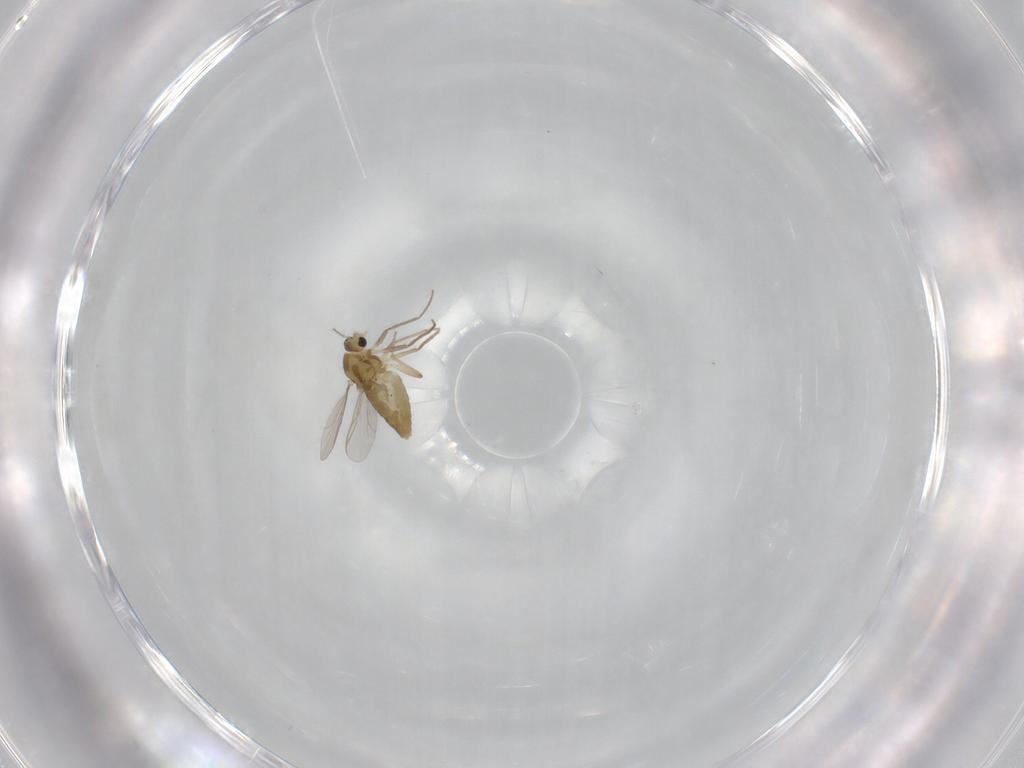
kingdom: Animalia
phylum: Arthropoda
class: Insecta
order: Diptera
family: Chironomidae
